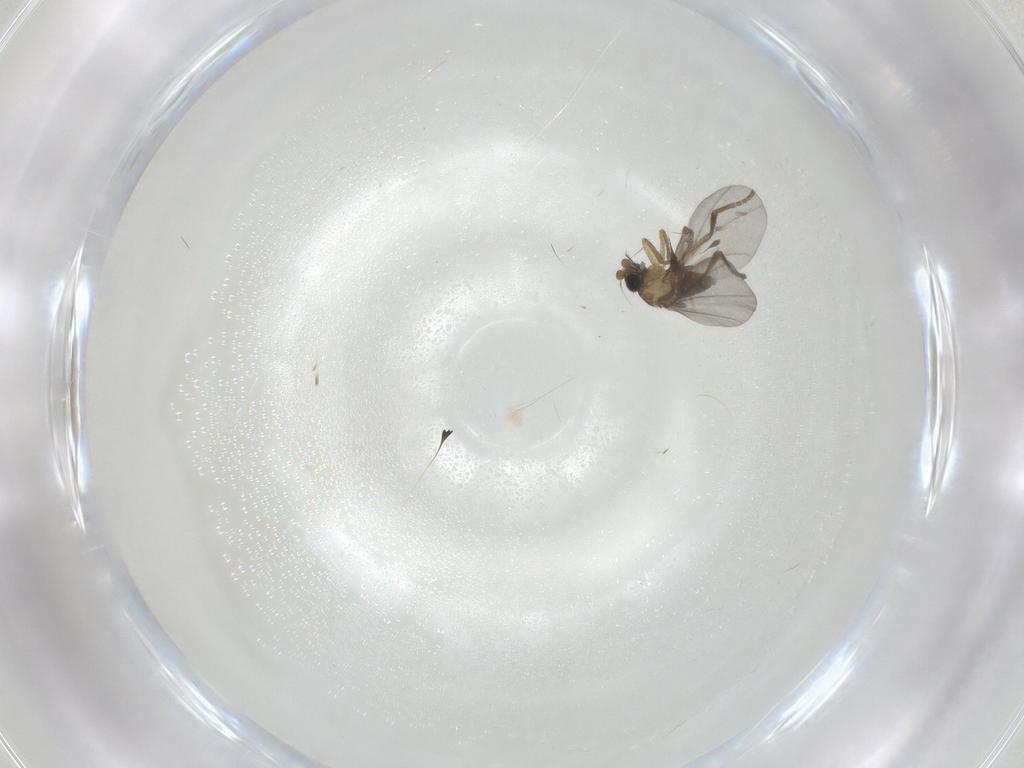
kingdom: Animalia
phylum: Arthropoda
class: Insecta
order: Diptera
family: Phoridae
